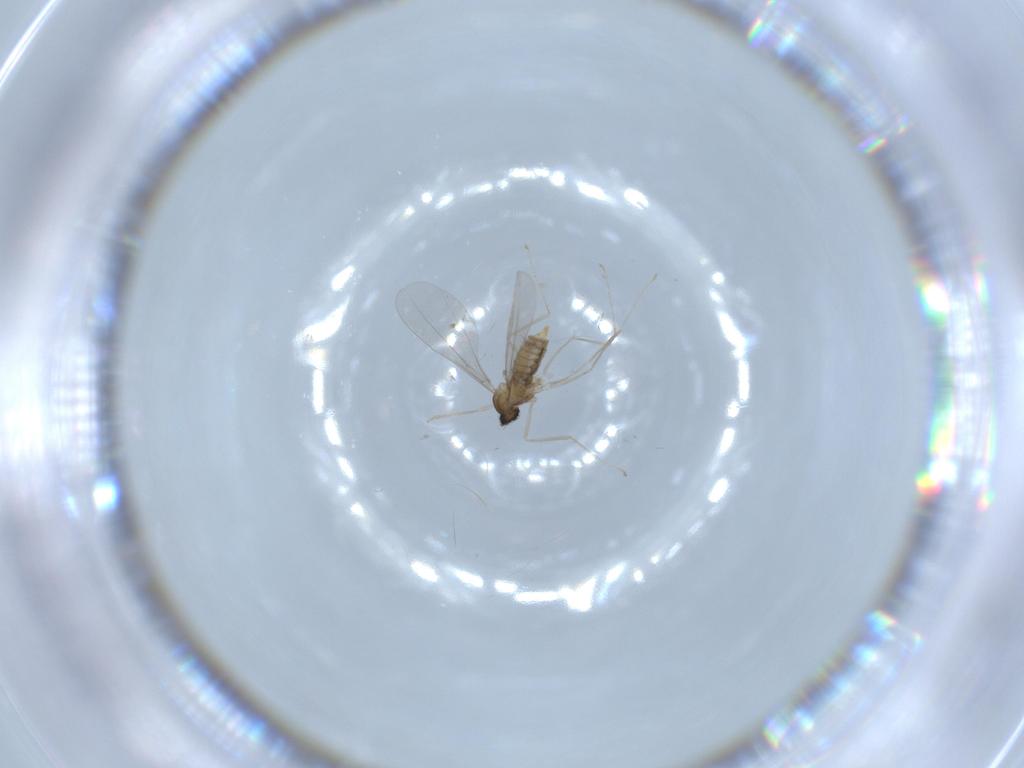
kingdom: Animalia
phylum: Arthropoda
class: Insecta
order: Diptera
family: Cecidomyiidae
